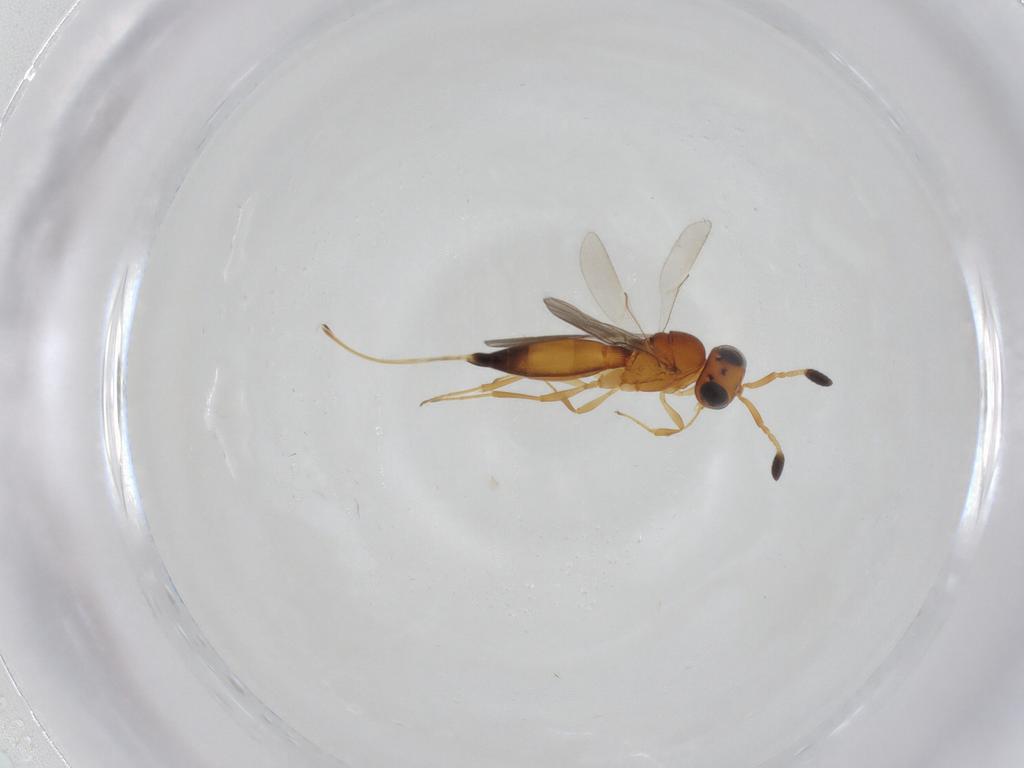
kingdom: Animalia
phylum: Arthropoda
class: Insecta
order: Hymenoptera
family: Scelionidae
